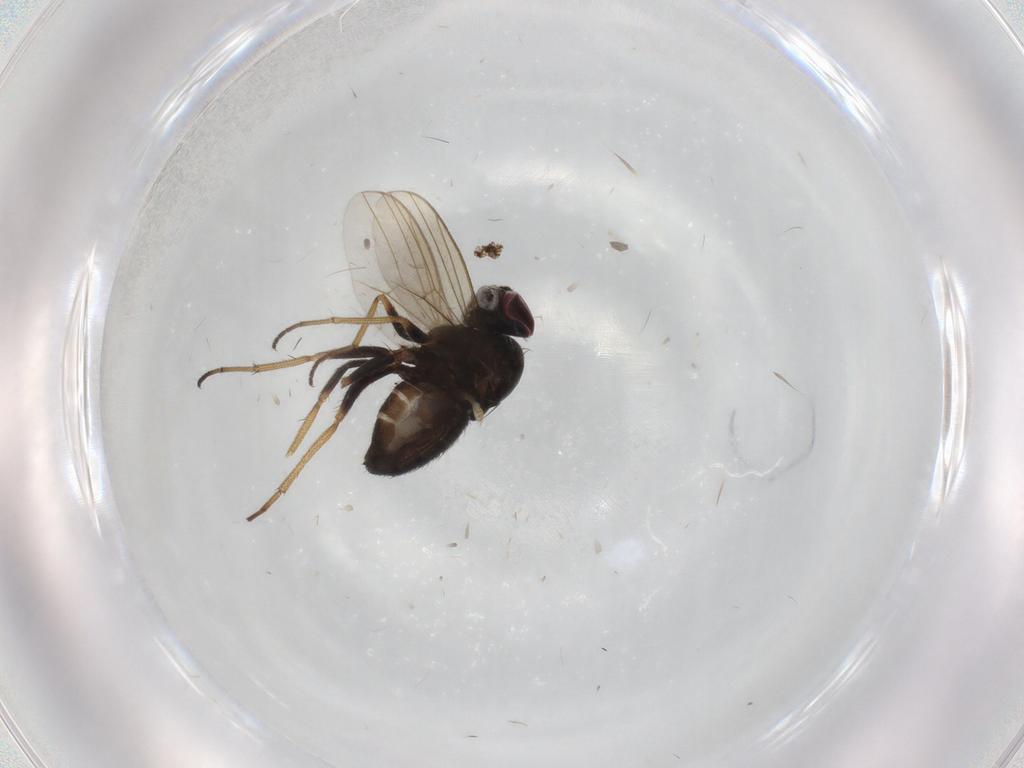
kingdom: Animalia
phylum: Arthropoda
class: Insecta
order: Diptera
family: Dolichopodidae
